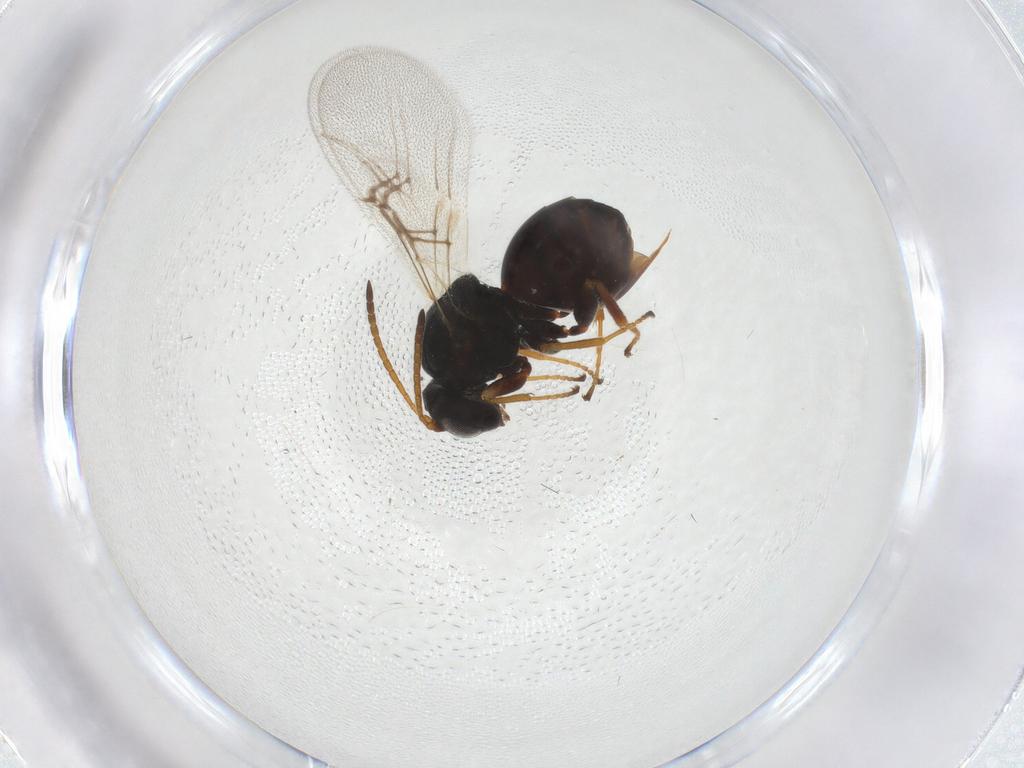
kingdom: Animalia
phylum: Arthropoda
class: Insecta
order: Hymenoptera
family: Cynipidae
